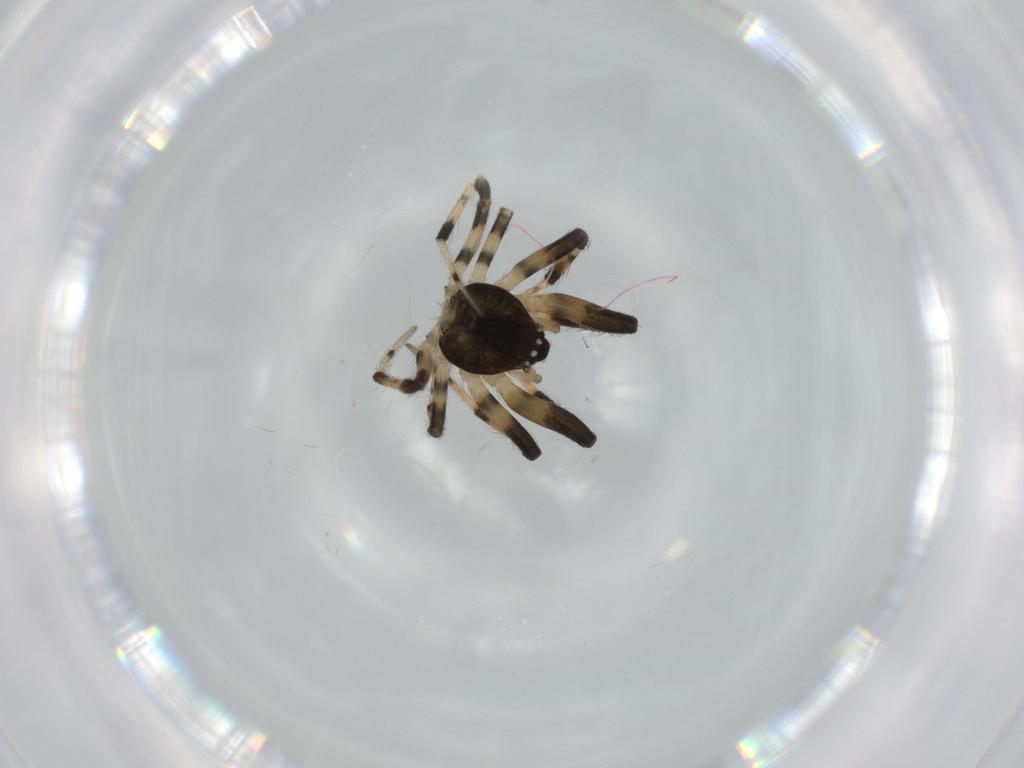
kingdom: Animalia
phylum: Arthropoda
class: Arachnida
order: Araneae
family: Mysmenidae
